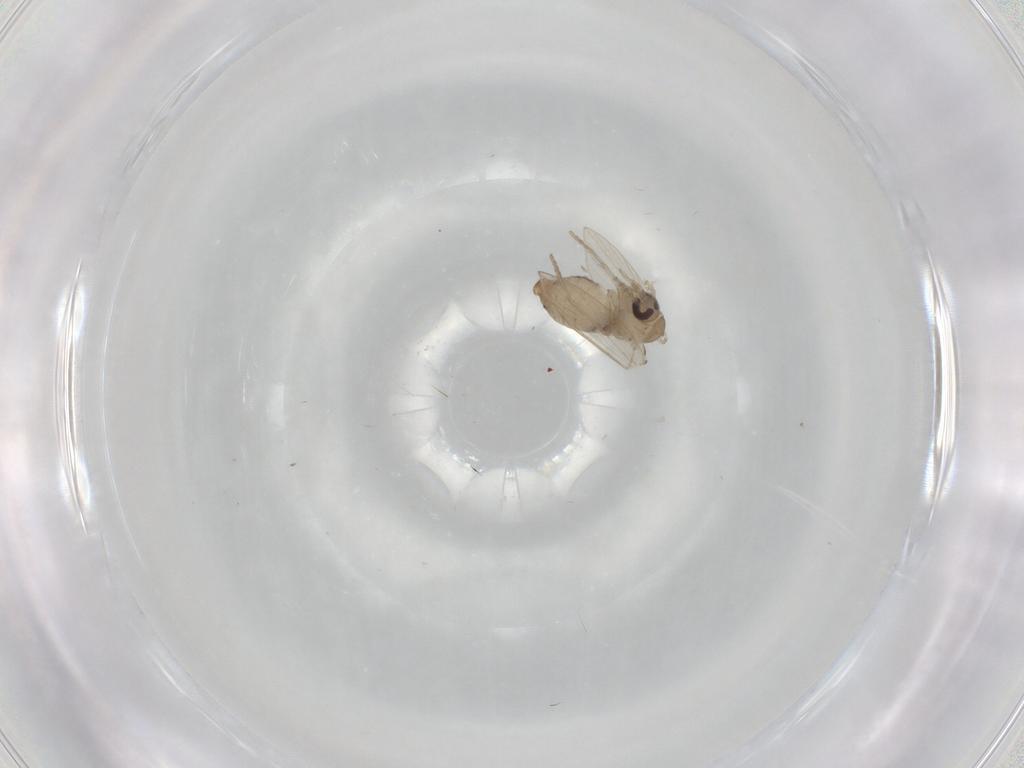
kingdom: Animalia
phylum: Arthropoda
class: Insecta
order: Diptera
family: Psychodidae
